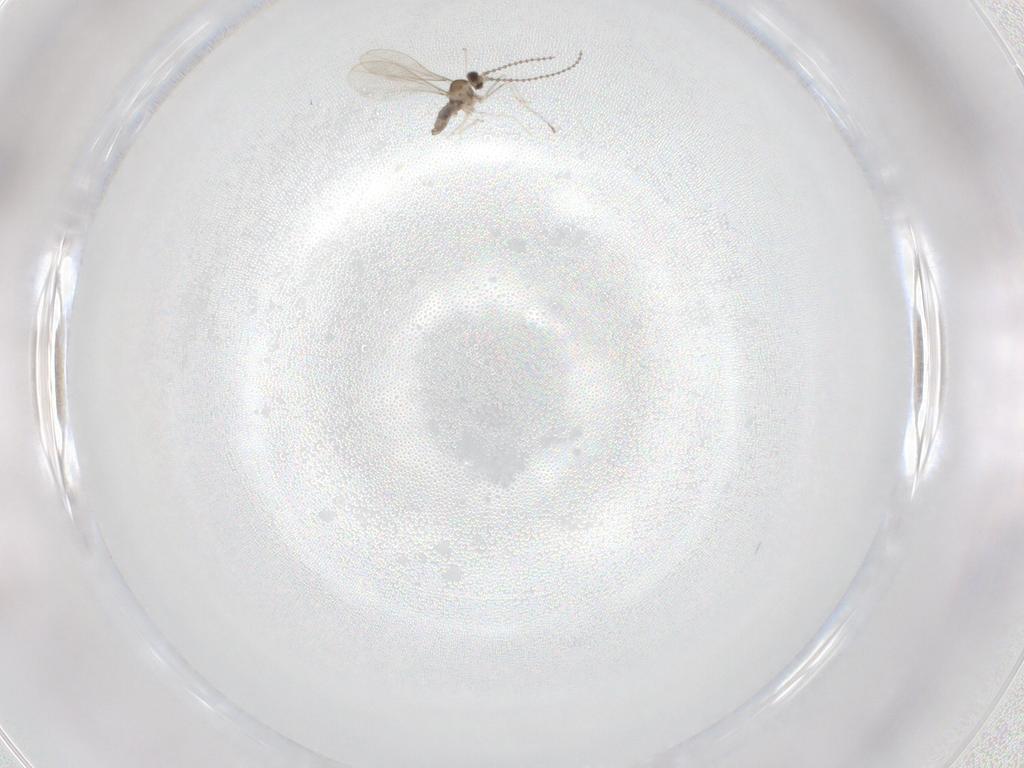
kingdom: Animalia
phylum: Arthropoda
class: Insecta
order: Diptera
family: Cecidomyiidae
